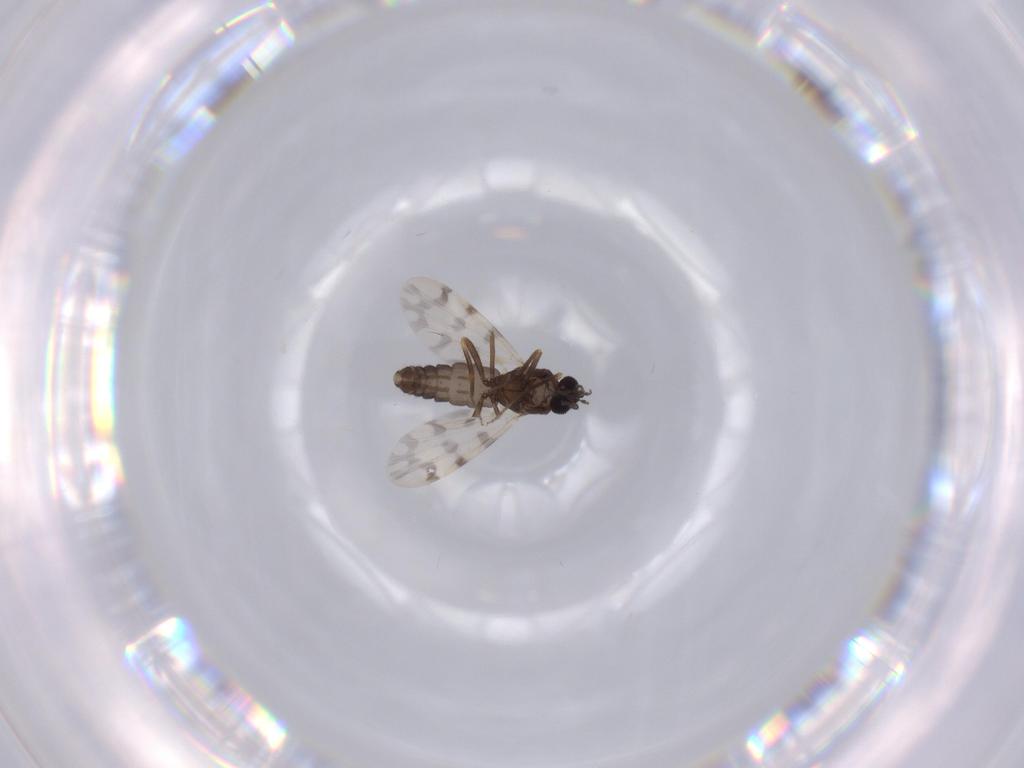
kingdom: Animalia
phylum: Arthropoda
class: Insecta
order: Diptera
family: Cecidomyiidae
